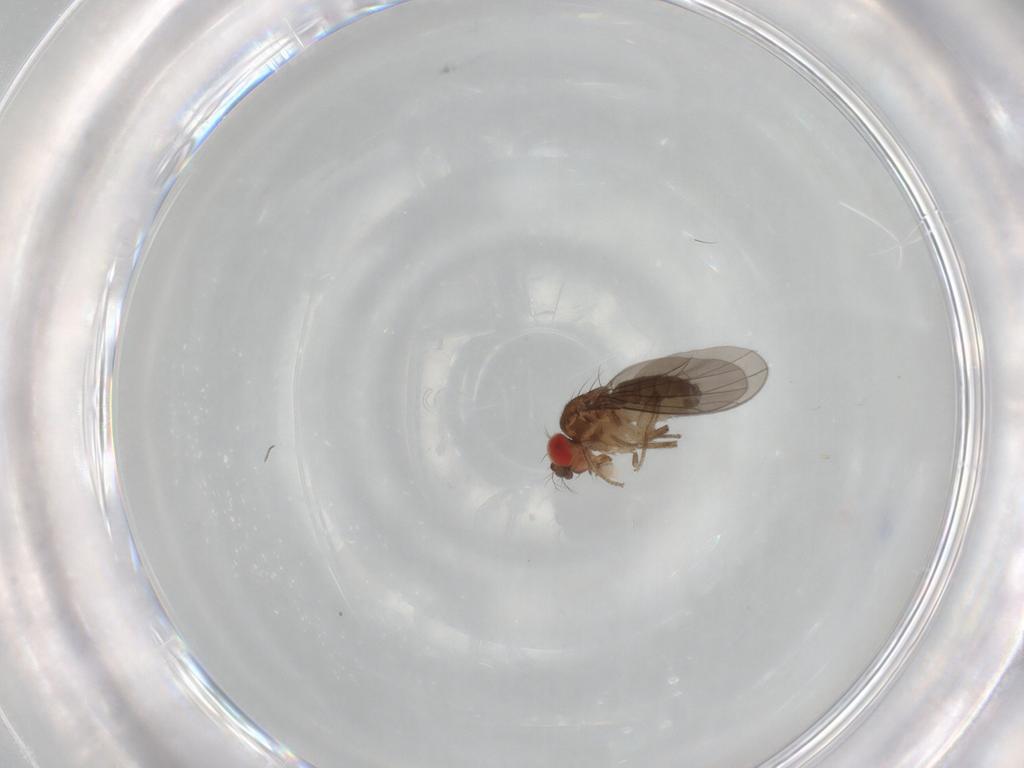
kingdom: Animalia
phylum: Arthropoda
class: Insecta
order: Diptera
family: Drosophilidae
